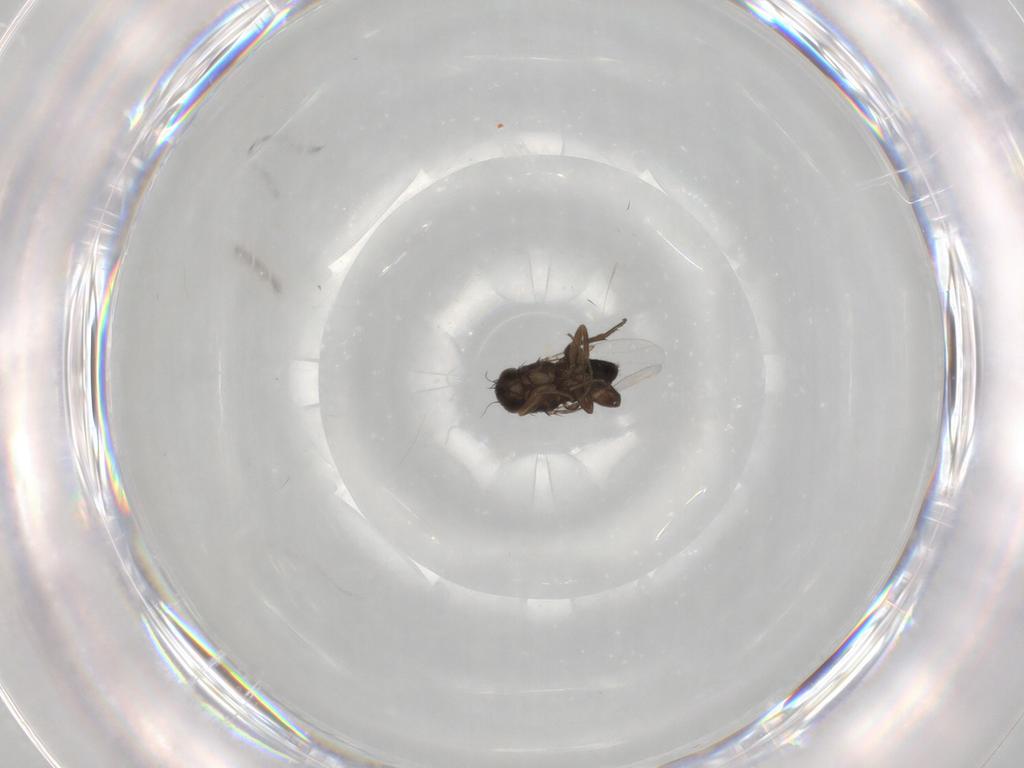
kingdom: Animalia
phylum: Arthropoda
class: Insecta
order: Diptera
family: Phoridae
